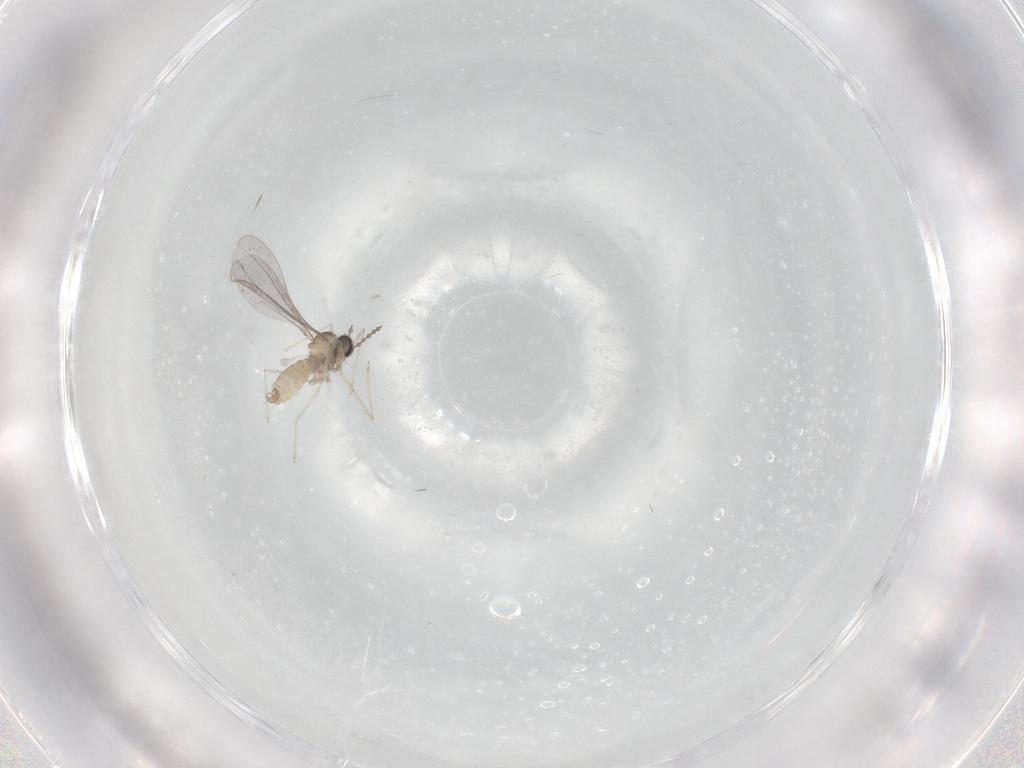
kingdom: Animalia
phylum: Arthropoda
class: Insecta
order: Diptera
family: Cecidomyiidae
